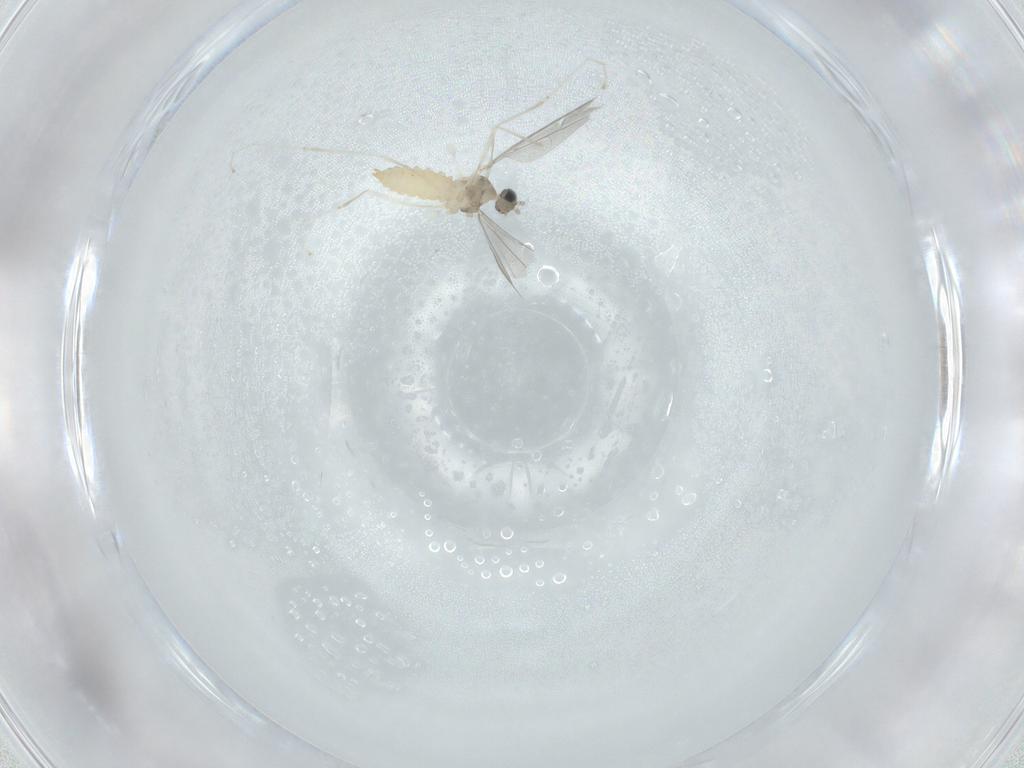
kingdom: Animalia
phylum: Arthropoda
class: Insecta
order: Diptera
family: Cecidomyiidae
